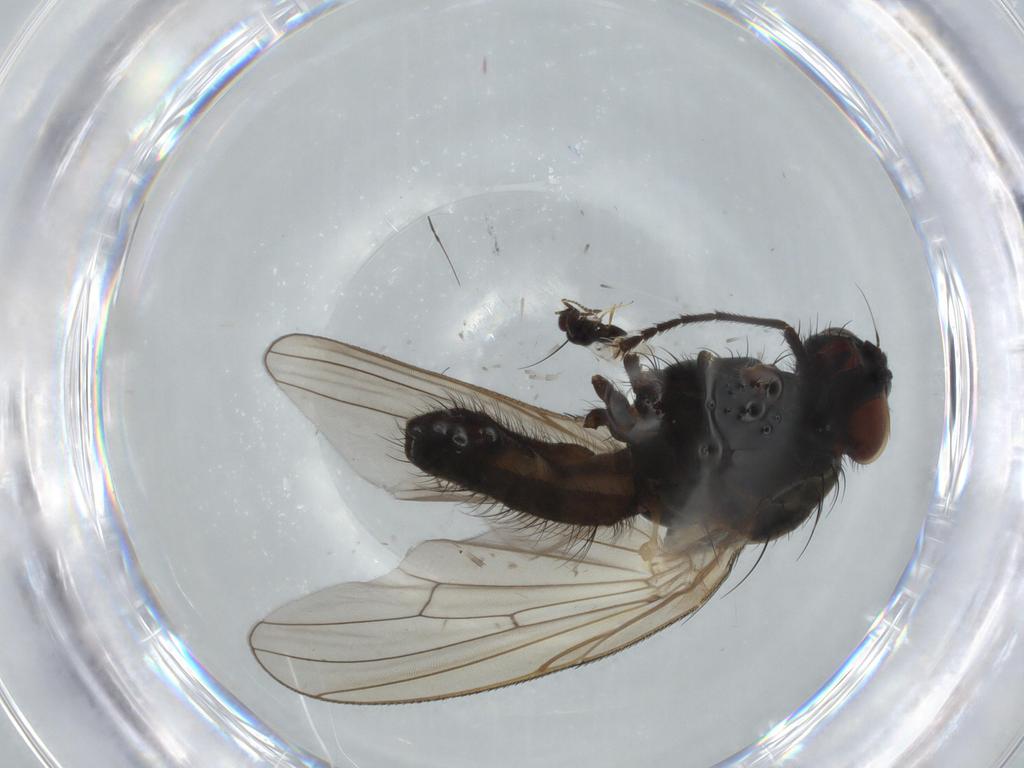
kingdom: Animalia
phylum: Arthropoda
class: Insecta
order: Diptera
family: Anthomyiidae
